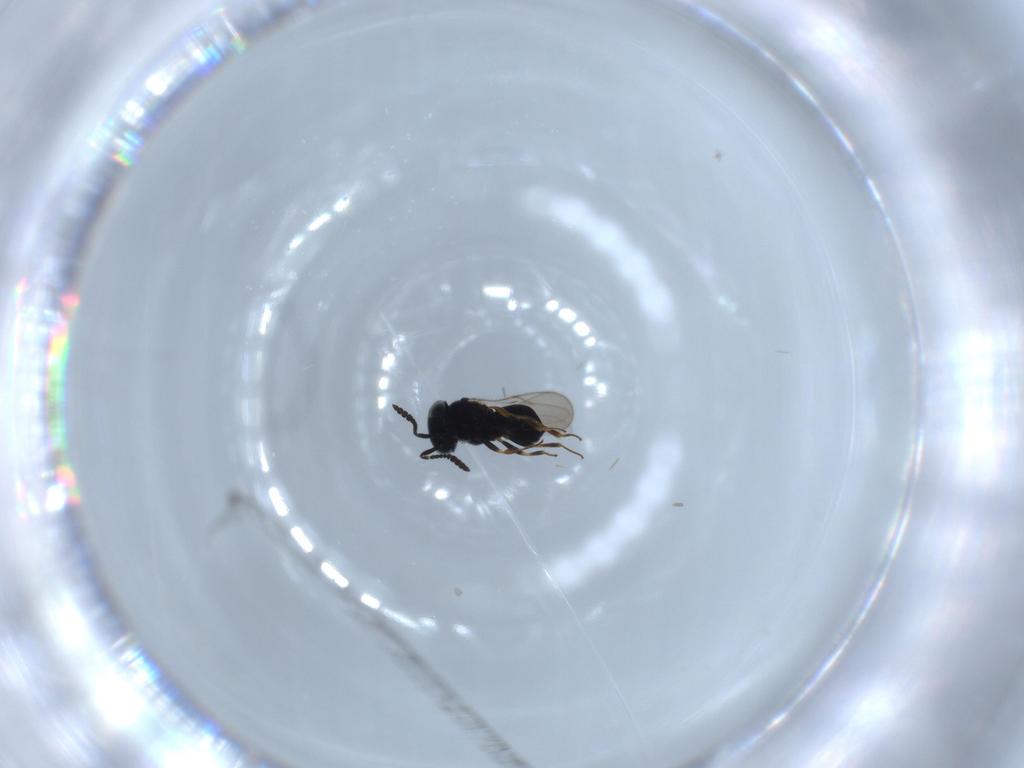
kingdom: Animalia
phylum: Arthropoda
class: Insecta
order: Hymenoptera
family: Scelionidae
